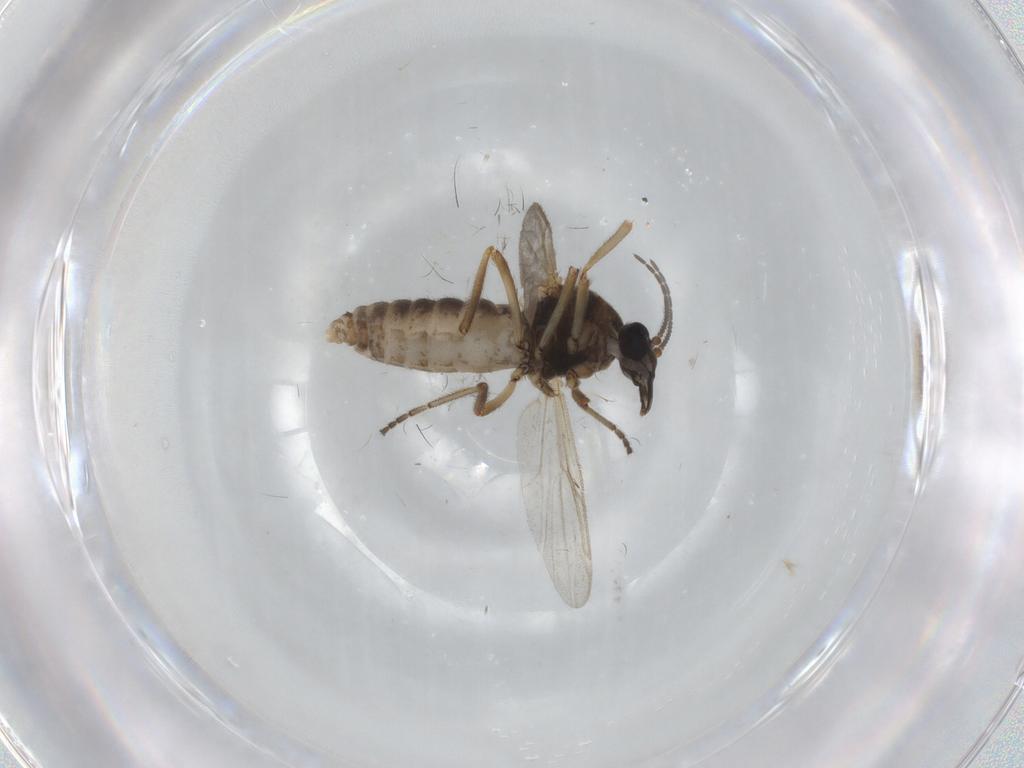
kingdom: Animalia
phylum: Arthropoda
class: Insecta
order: Diptera
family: Ceratopogonidae
